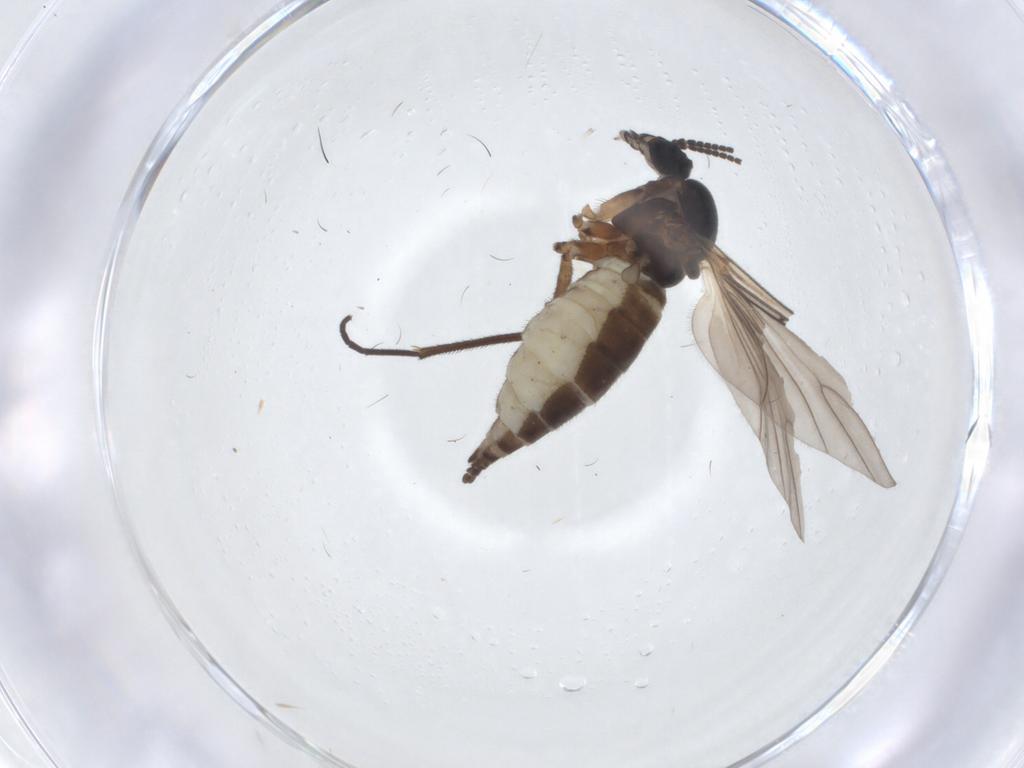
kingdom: Animalia
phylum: Arthropoda
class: Insecta
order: Diptera
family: Sciaridae
